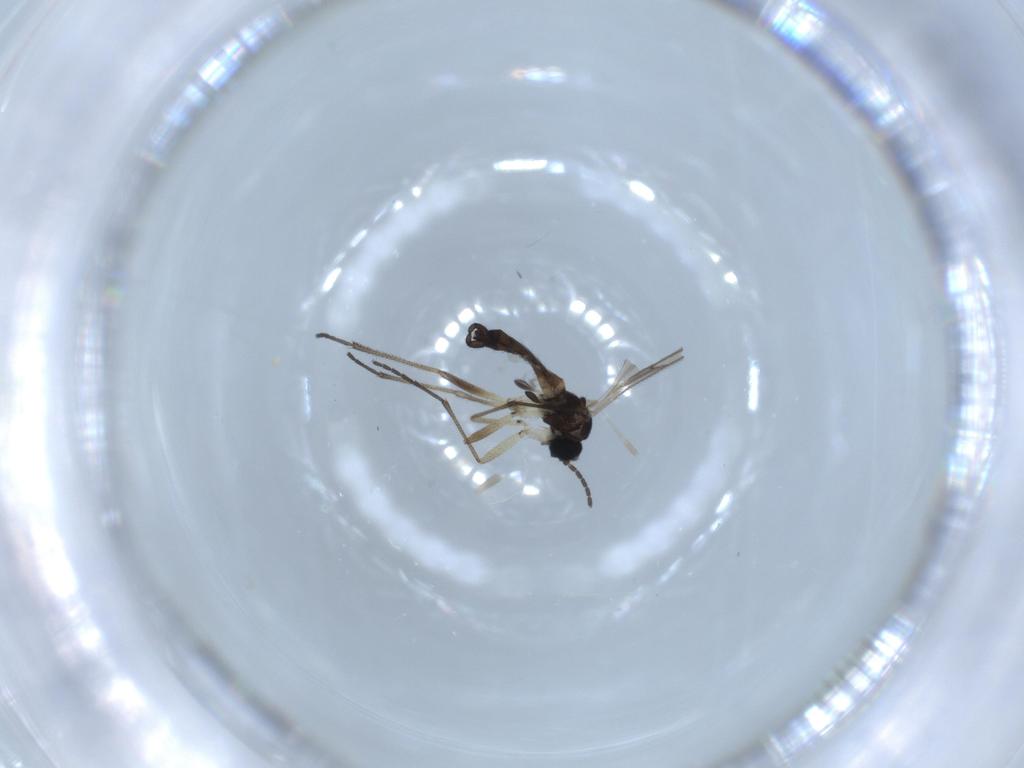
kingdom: Animalia
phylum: Arthropoda
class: Insecta
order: Diptera
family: Sciaridae
